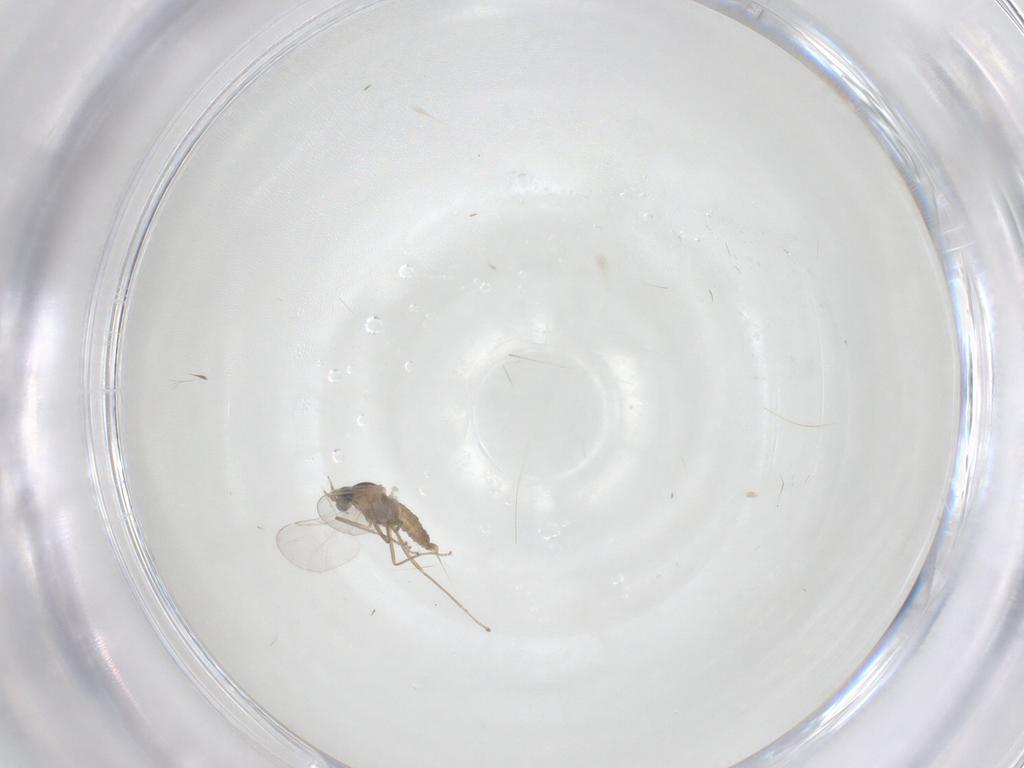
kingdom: Animalia
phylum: Arthropoda
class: Insecta
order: Diptera
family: Cecidomyiidae
